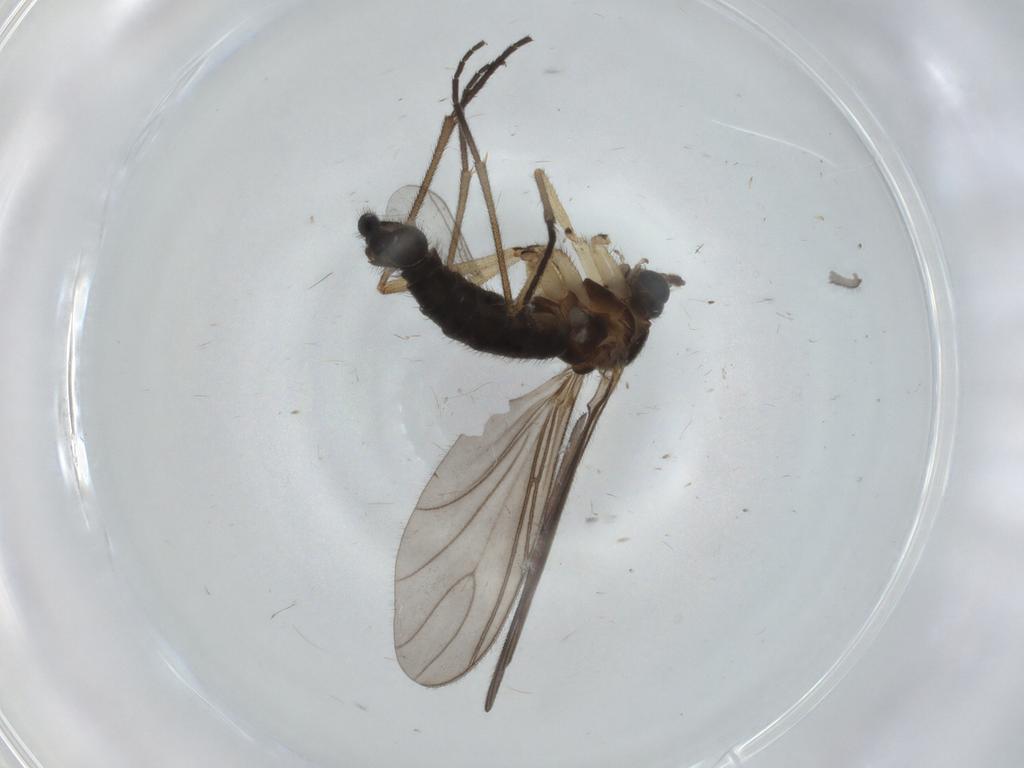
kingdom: Animalia
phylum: Arthropoda
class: Insecta
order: Diptera
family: Sciaridae
